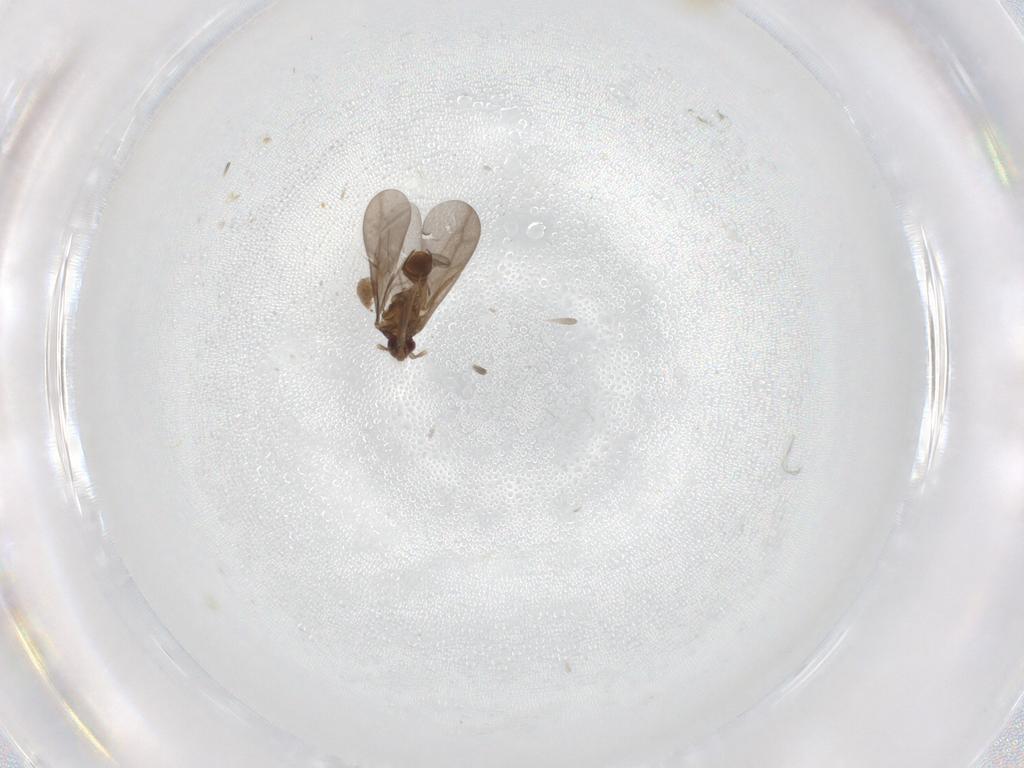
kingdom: Animalia
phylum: Arthropoda
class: Insecta
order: Hemiptera
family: Ceratocombidae
